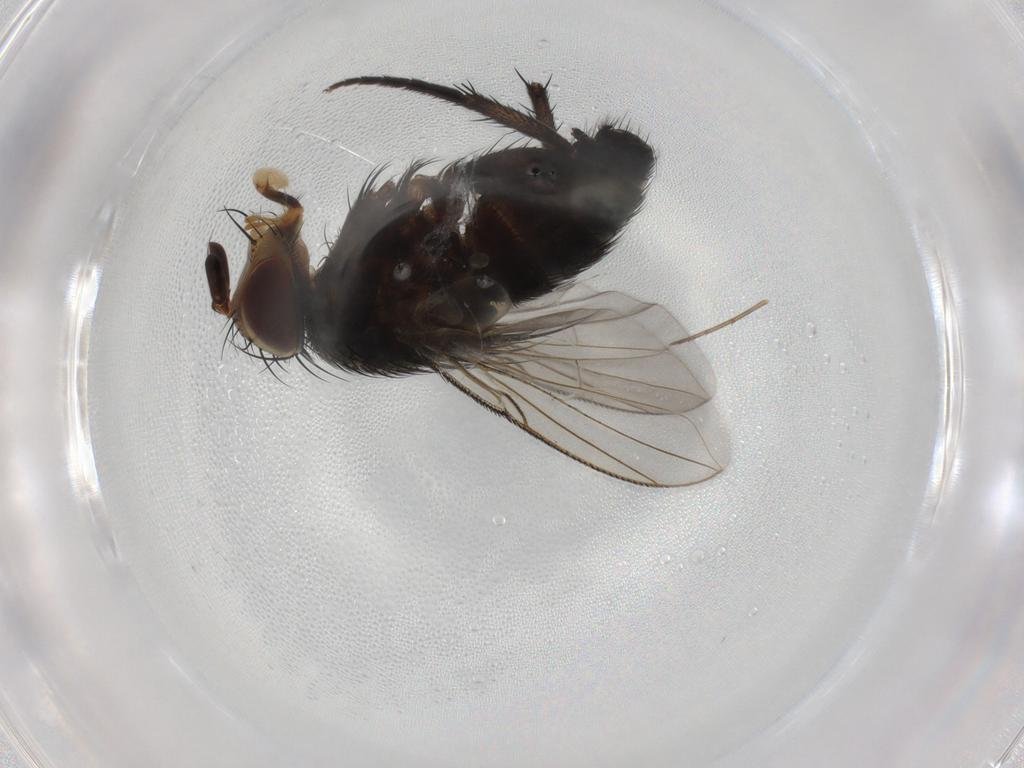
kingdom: Animalia
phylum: Arthropoda
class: Insecta
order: Diptera
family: Tachinidae
